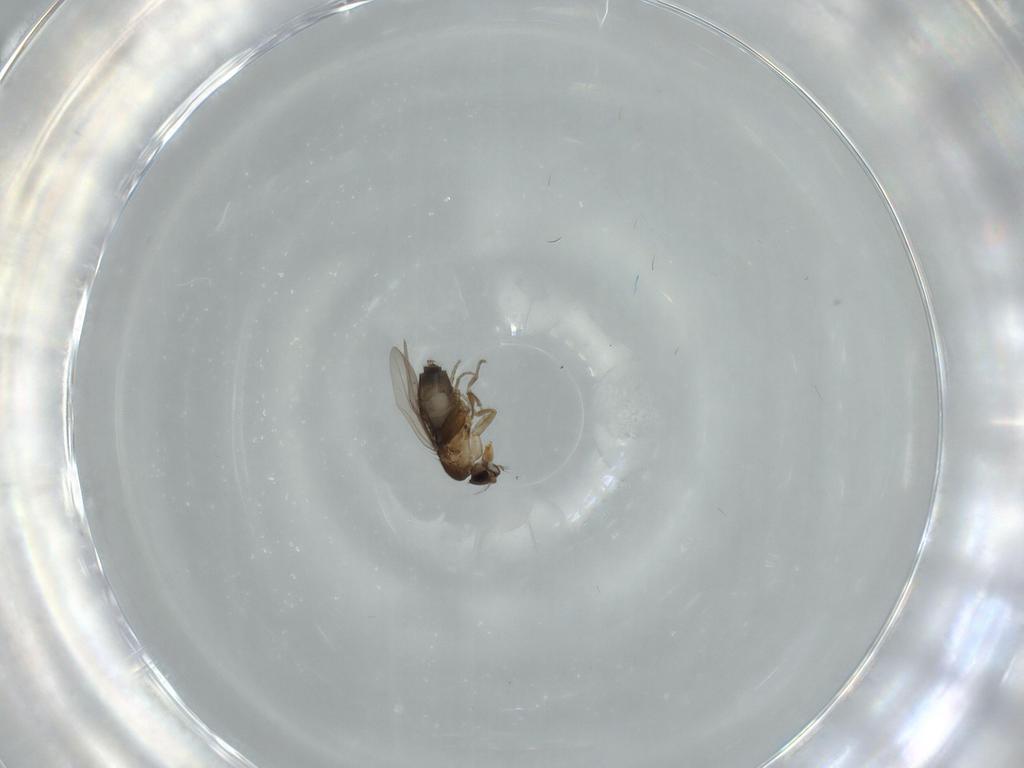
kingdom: Animalia
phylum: Arthropoda
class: Insecta
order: Diptera
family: Phoridae
